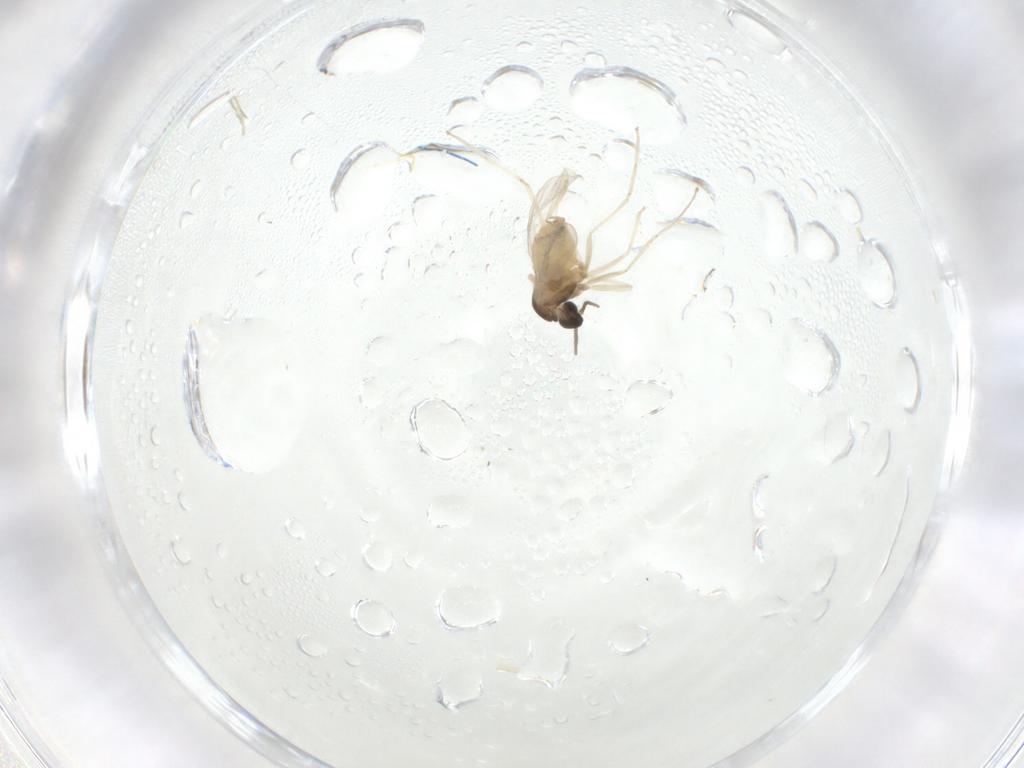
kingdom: Animalia
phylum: Arthropoda
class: Insecta
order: Diptera
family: Cecidomyiidae
